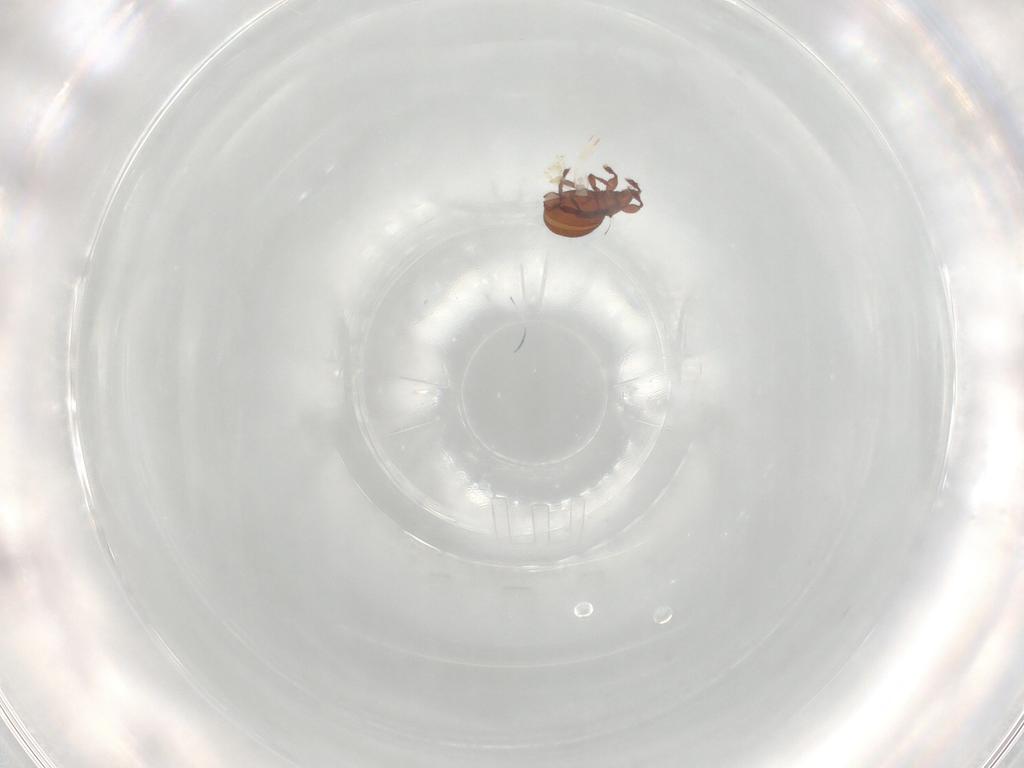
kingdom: Animalia
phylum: Arthropoda
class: Arachnida
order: Sarcoptiformes
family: Eremaeidae
